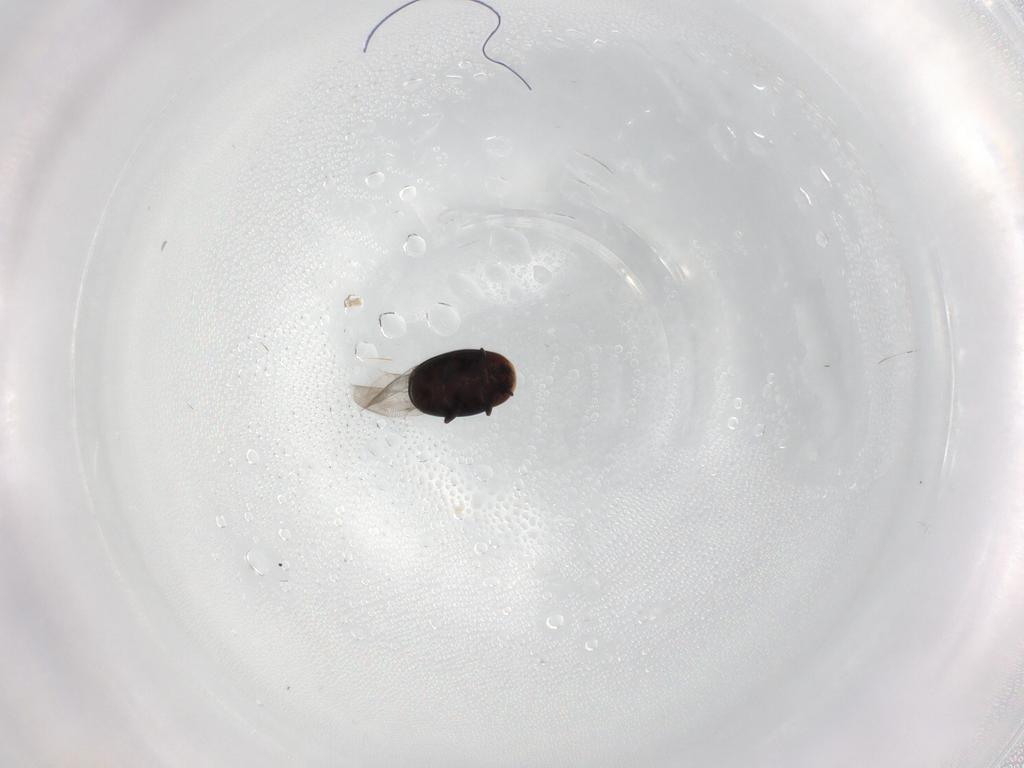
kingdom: Animalia
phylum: Arthropoda
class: Insecta
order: Coleoptera
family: Corylophidae
